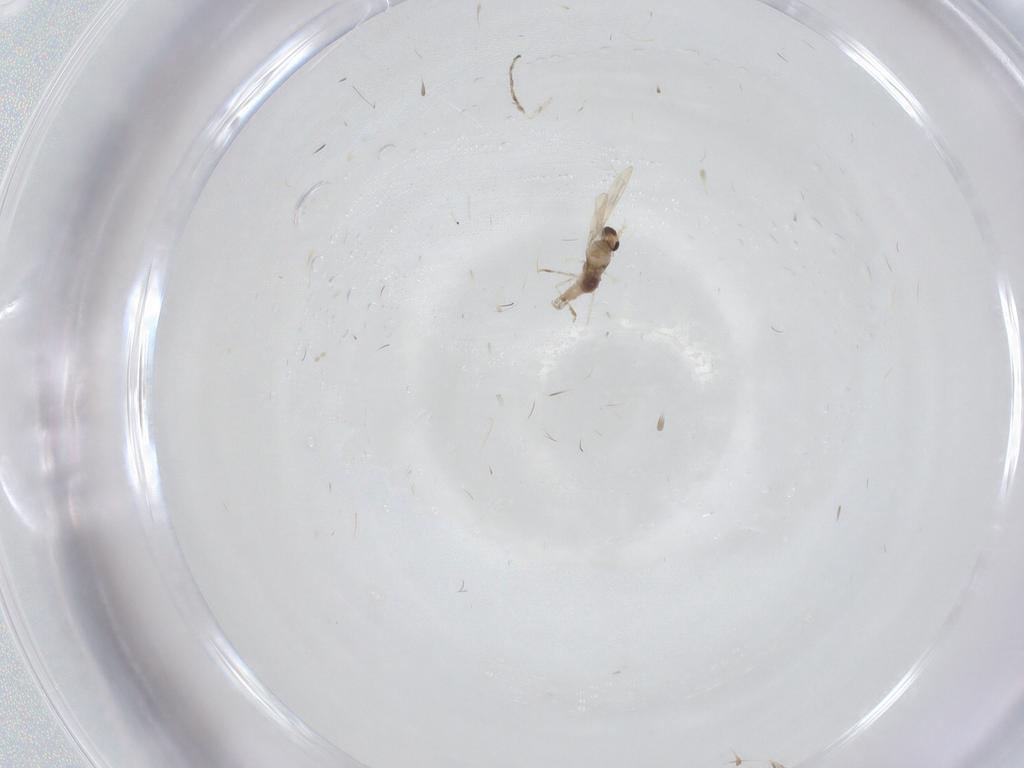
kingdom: Animalia
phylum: Arthropoda
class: Insecta
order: Diptera
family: Cecidomyiidae
